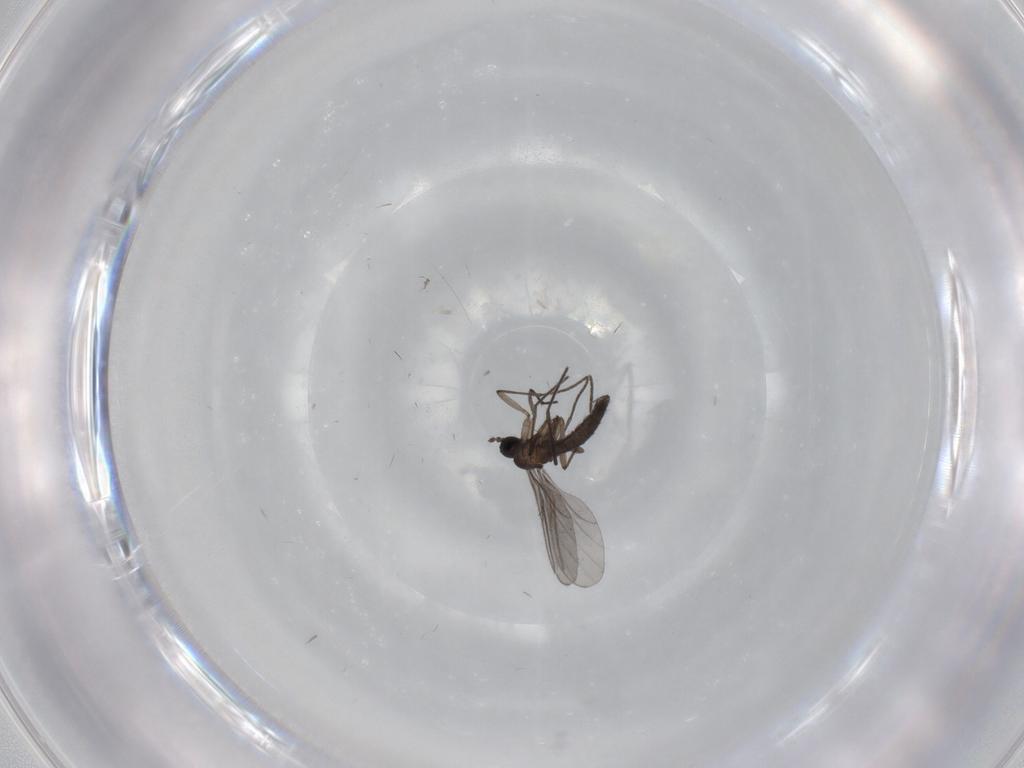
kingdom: Animalia
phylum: Arthropoda
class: Insecta
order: Diptera
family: Cecidomyiidae
